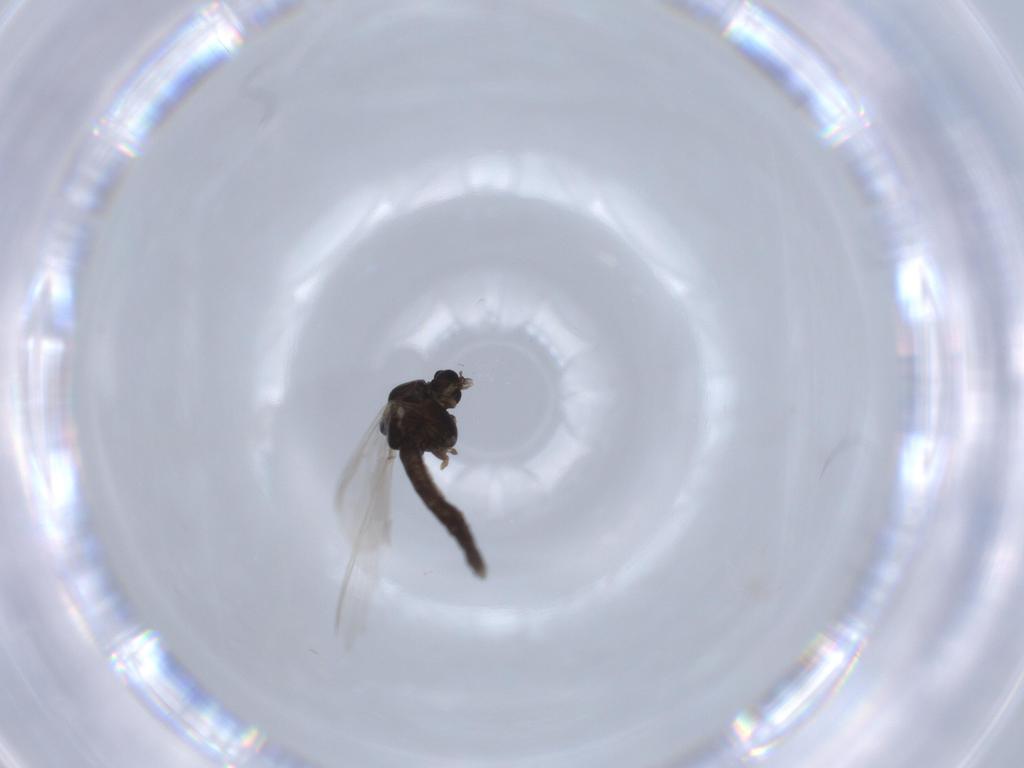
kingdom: Animalia
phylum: Arthropoda
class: Insecta
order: Diptera
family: Chironomidae
